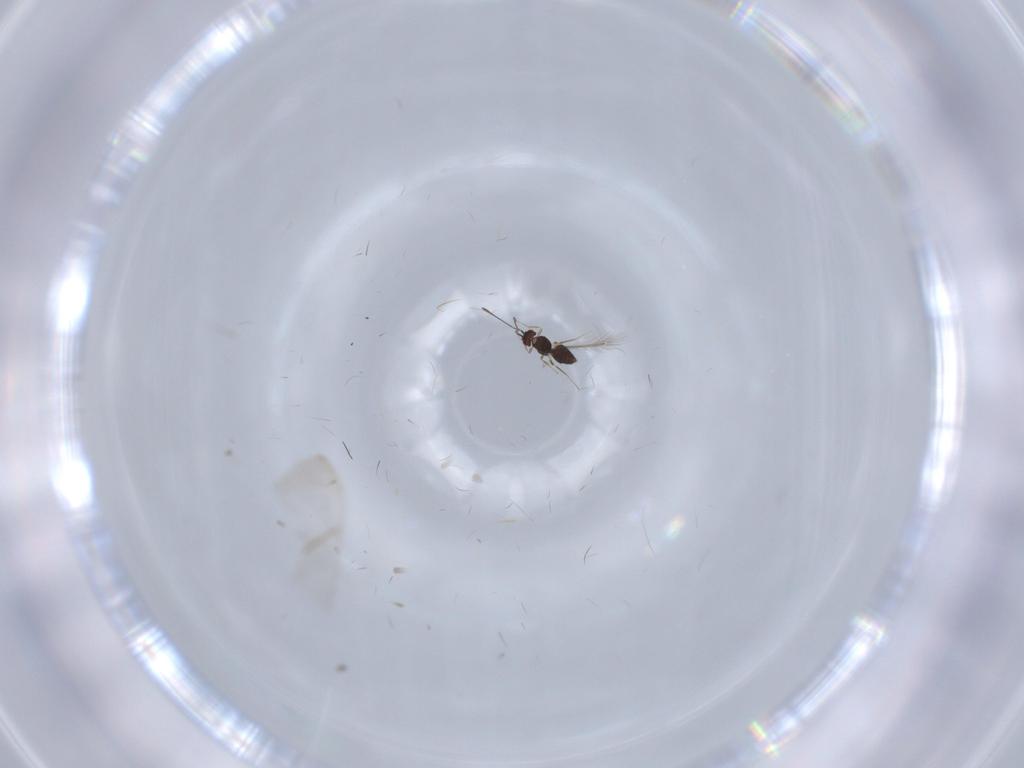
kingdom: Animalia
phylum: Arthropoda
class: Insecta
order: Hymenoptera
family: Mymaridae
